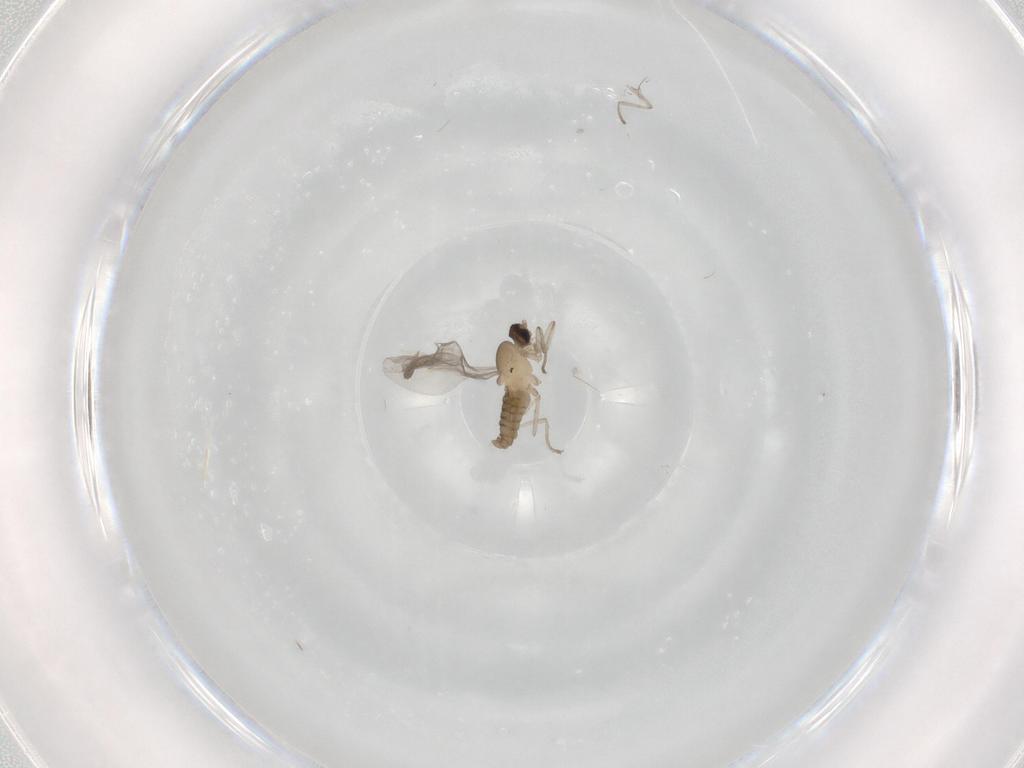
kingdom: Animalia
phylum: Arthropoda
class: Insecta
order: Diptera
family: Cecidomyiidae
